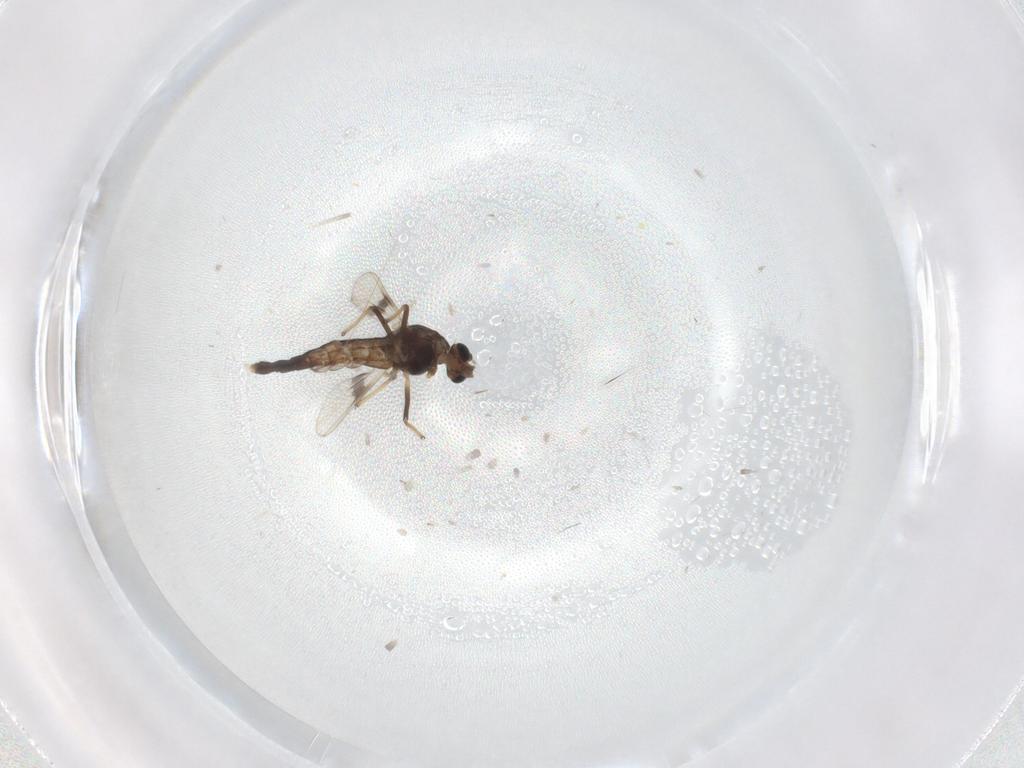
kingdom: Animalia
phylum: Arthropoda
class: Insecta
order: Diptera
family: Chironomidae
